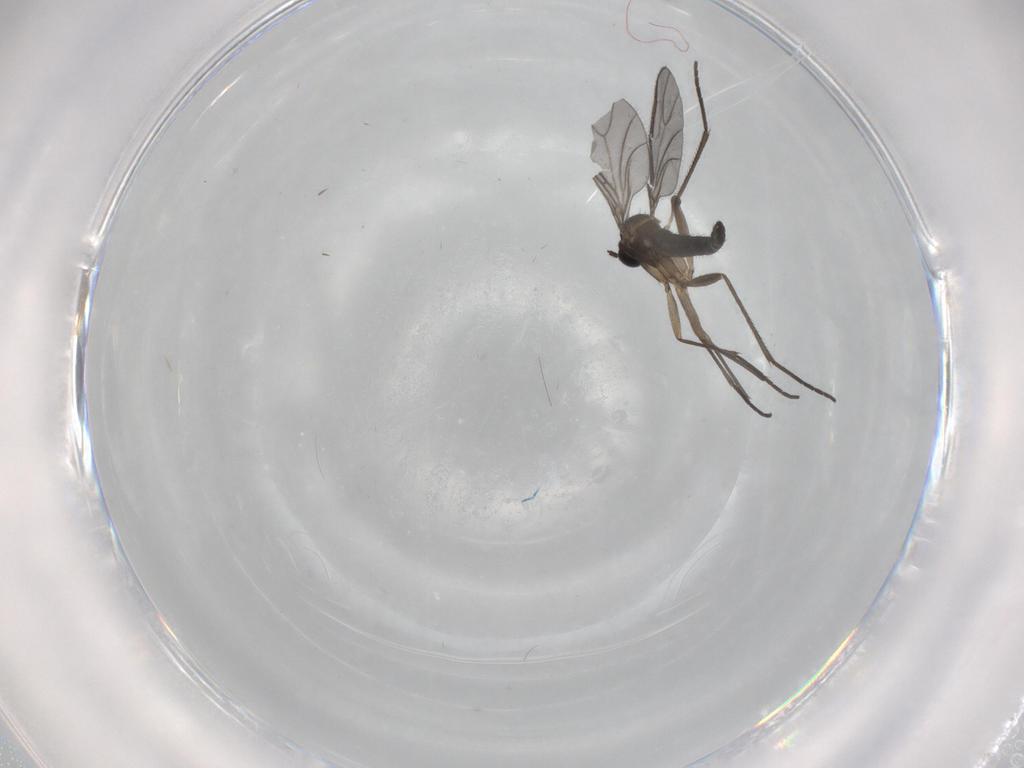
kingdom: Animalia
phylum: Arthropoda
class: Insecta
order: Diptera
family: Sciaridae
